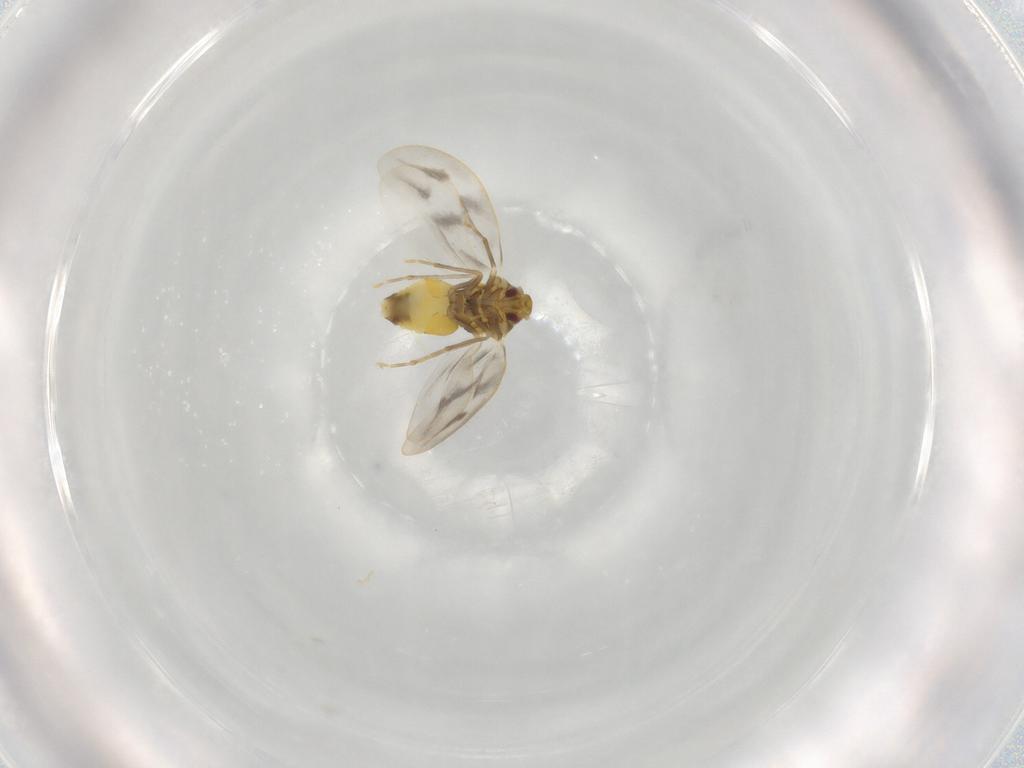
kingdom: Animalia
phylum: Arthropoda
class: Insecta
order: Hemiptera
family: Aleyrodidae
